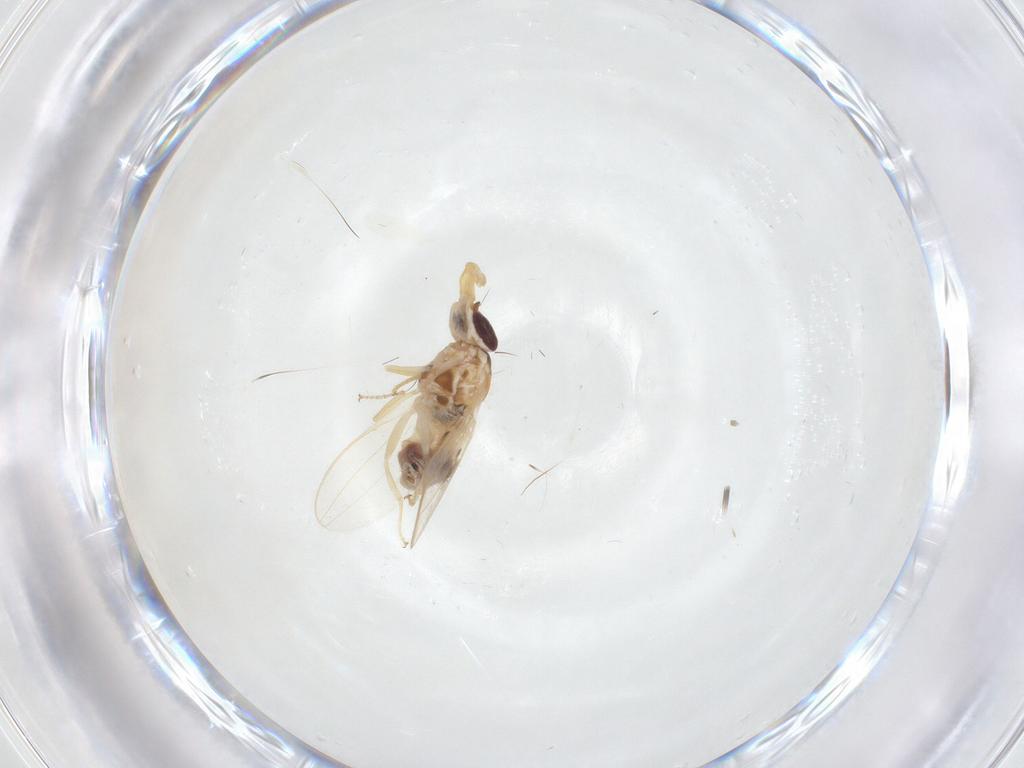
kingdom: Animalia
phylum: Arthropoda
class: Insecta
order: Diptera
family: Chloropidae
